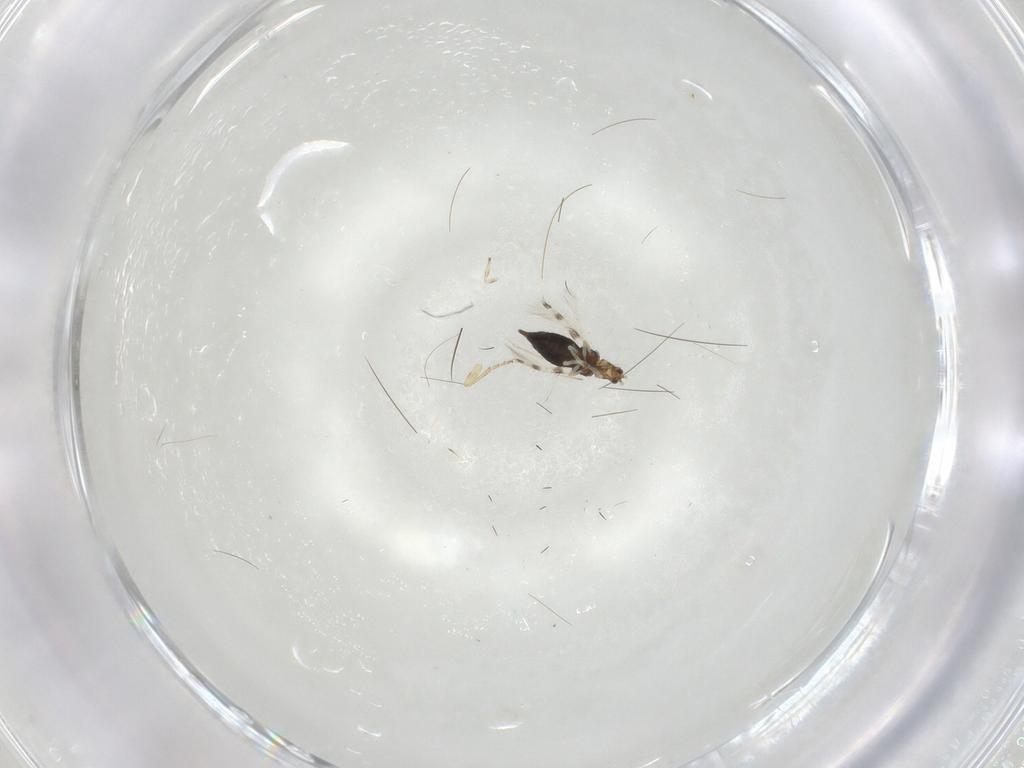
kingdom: Animalia
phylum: Arthropoda
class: Insecta
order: Thysanoptera
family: Thripidae
